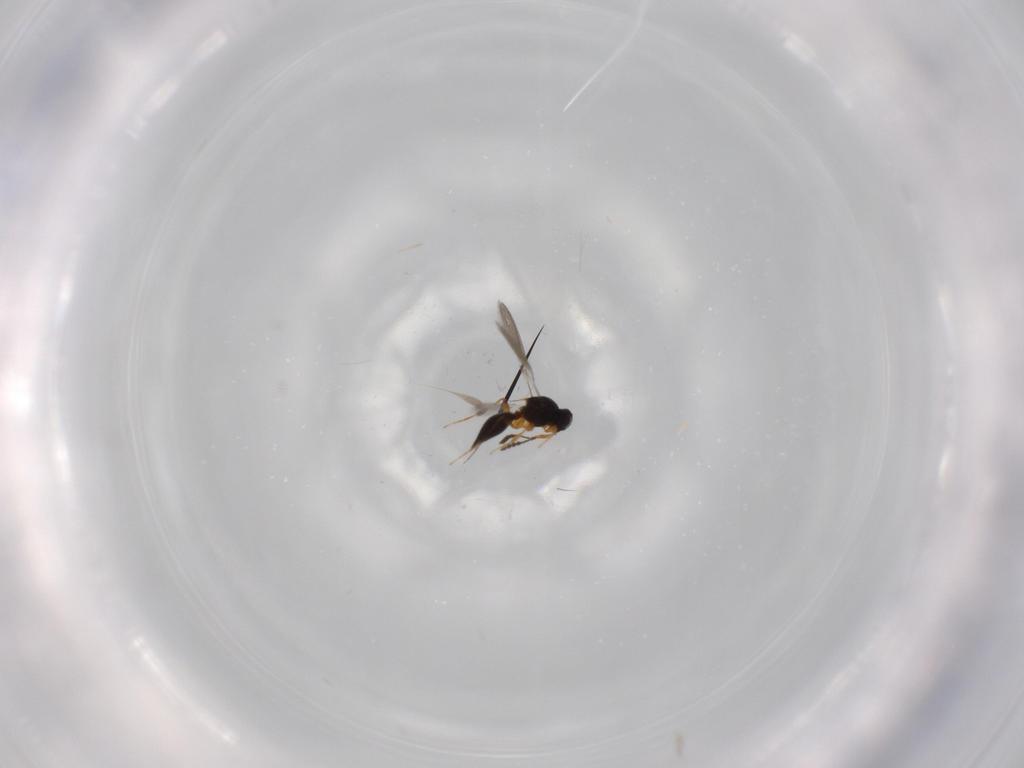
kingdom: Animalia
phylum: Arthropoda
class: Insecta
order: Hymenoptera
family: Platygastridae
